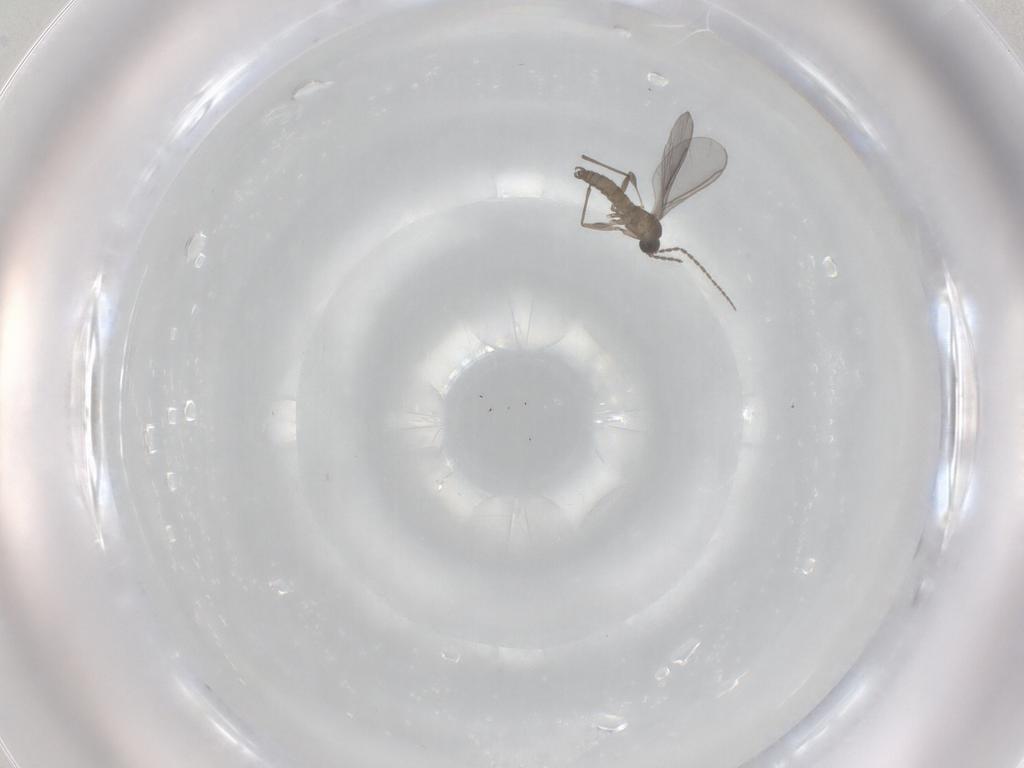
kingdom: Animalia
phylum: Arthropoda
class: Insecta
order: Diptera
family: Sciaridae
